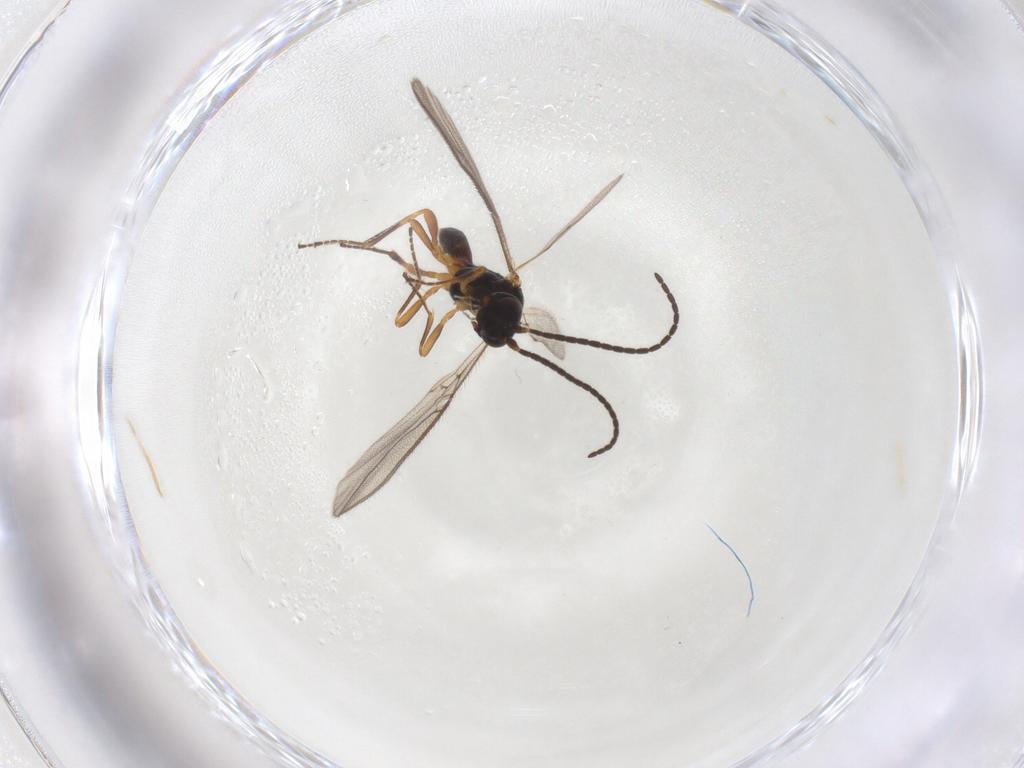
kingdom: Animalia
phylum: Arthropoda
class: Insecta
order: Hymenoptera
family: Braconidae
